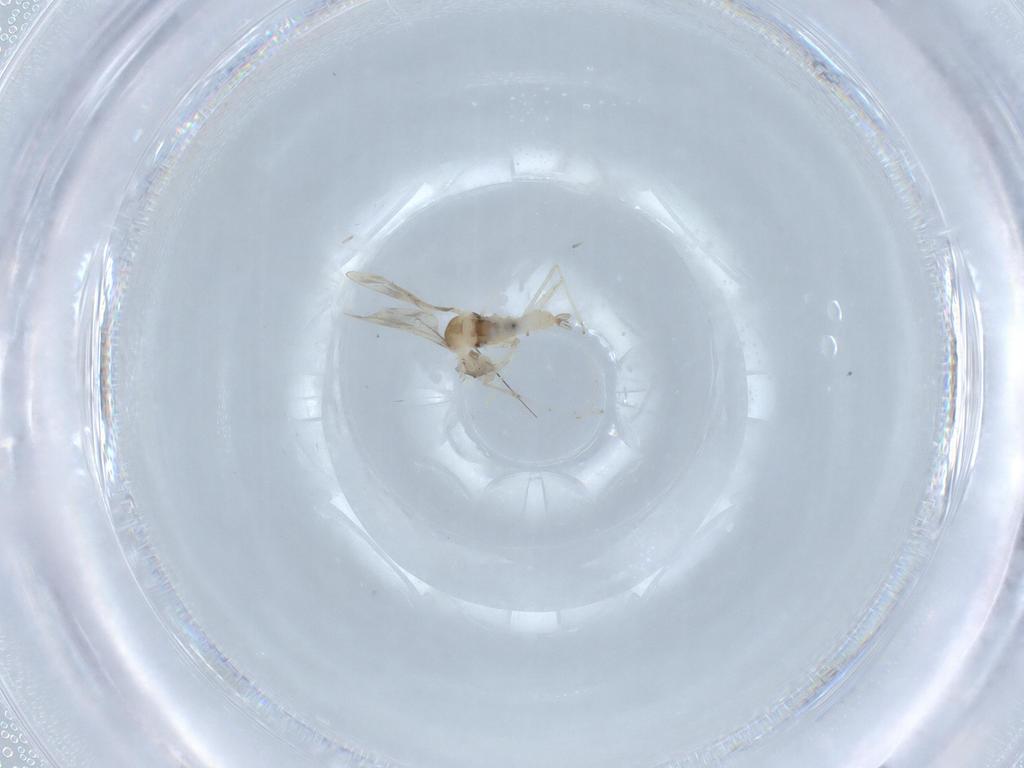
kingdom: Animalia
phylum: Arthropoda
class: Insecta
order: Diptera
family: Cecidomyiidae
